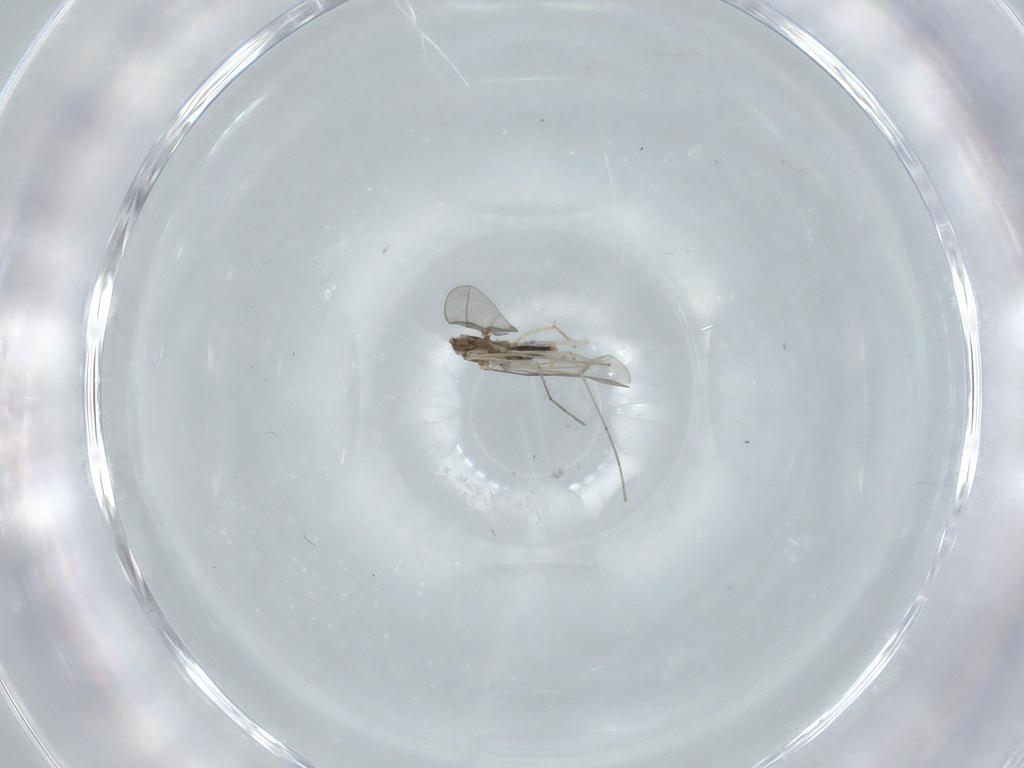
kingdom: Animalia
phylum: Arthropoda
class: Insecta
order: Diptera
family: Cecidomyiidae
